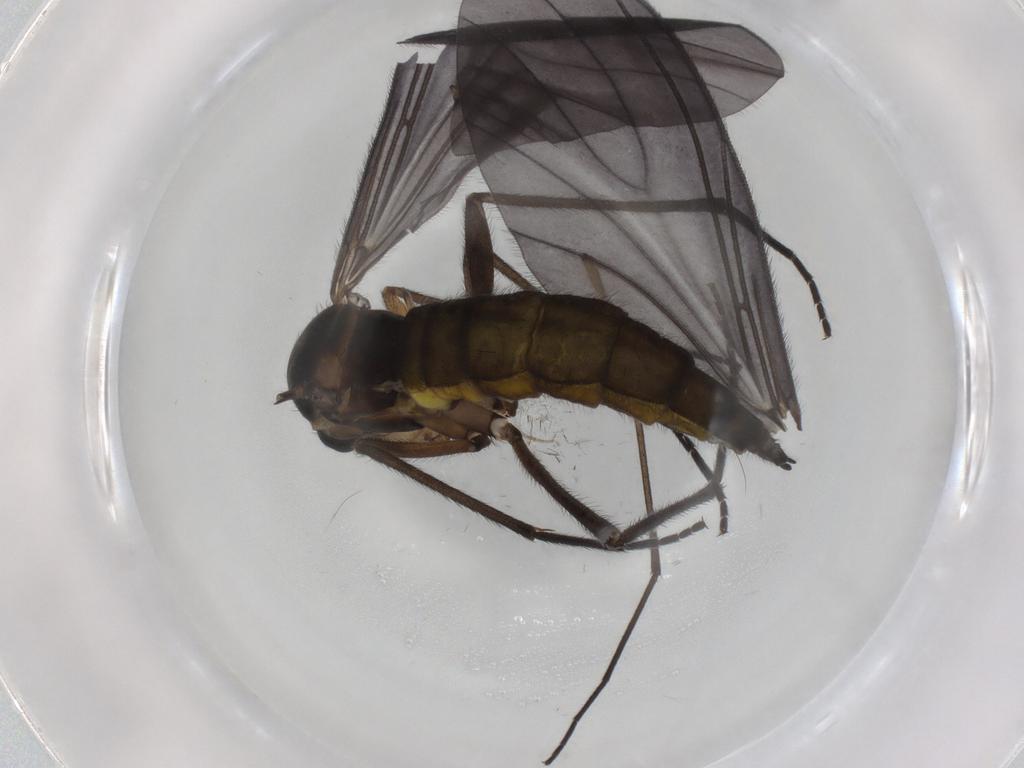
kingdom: Animalia
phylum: Arthropoda
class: Insecta
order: Diptera
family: Sciaridae
